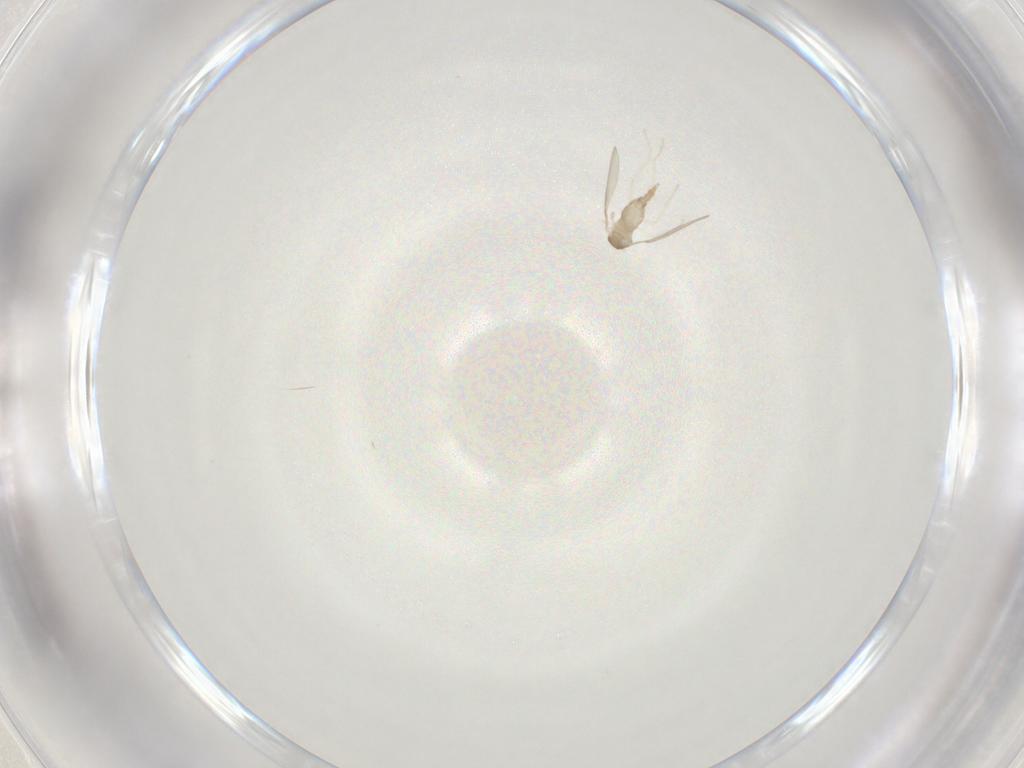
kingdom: Animalia
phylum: Arthropoda
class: Insecta
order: Diptera
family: Cecidomyiidae
